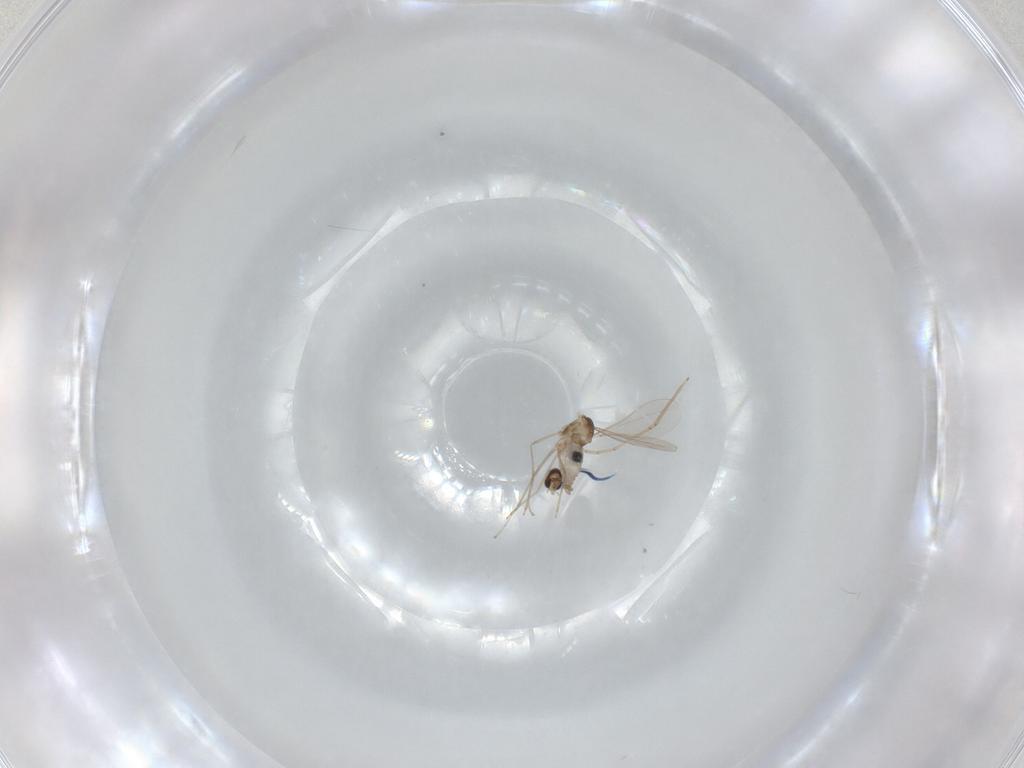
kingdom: Animalia
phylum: Arthropoda
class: Insecta
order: Diptera
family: Cecidomyiidae
